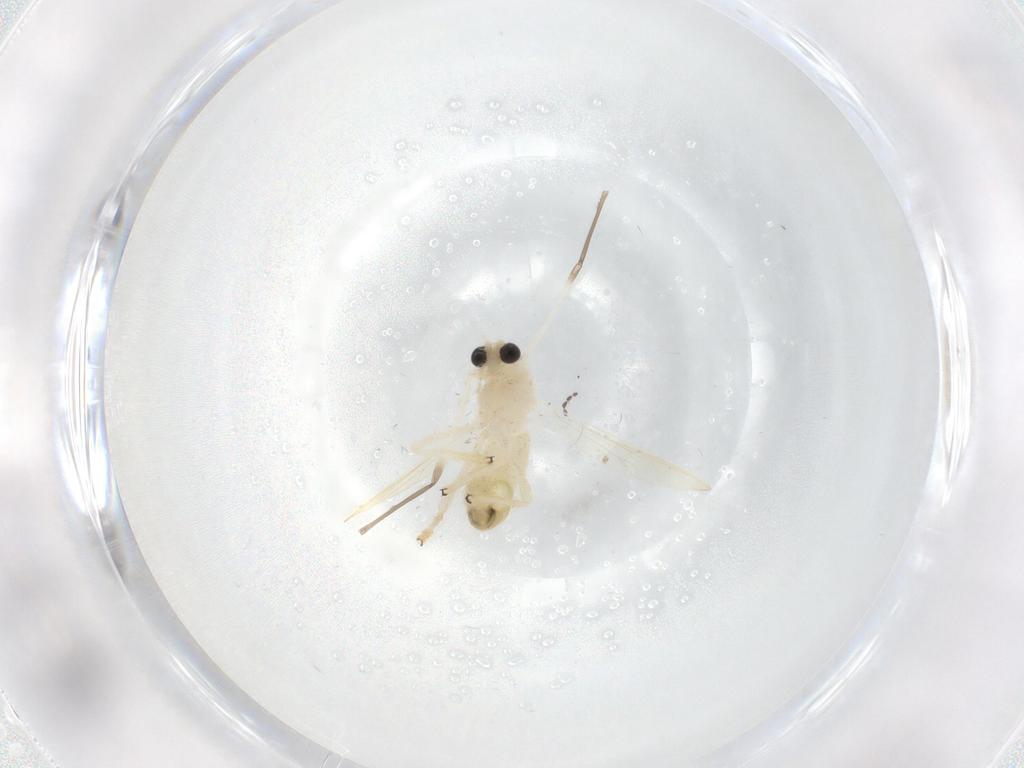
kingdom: Animalia
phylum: Arthropoda
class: Insecta
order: Diptera
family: Chironomidae
